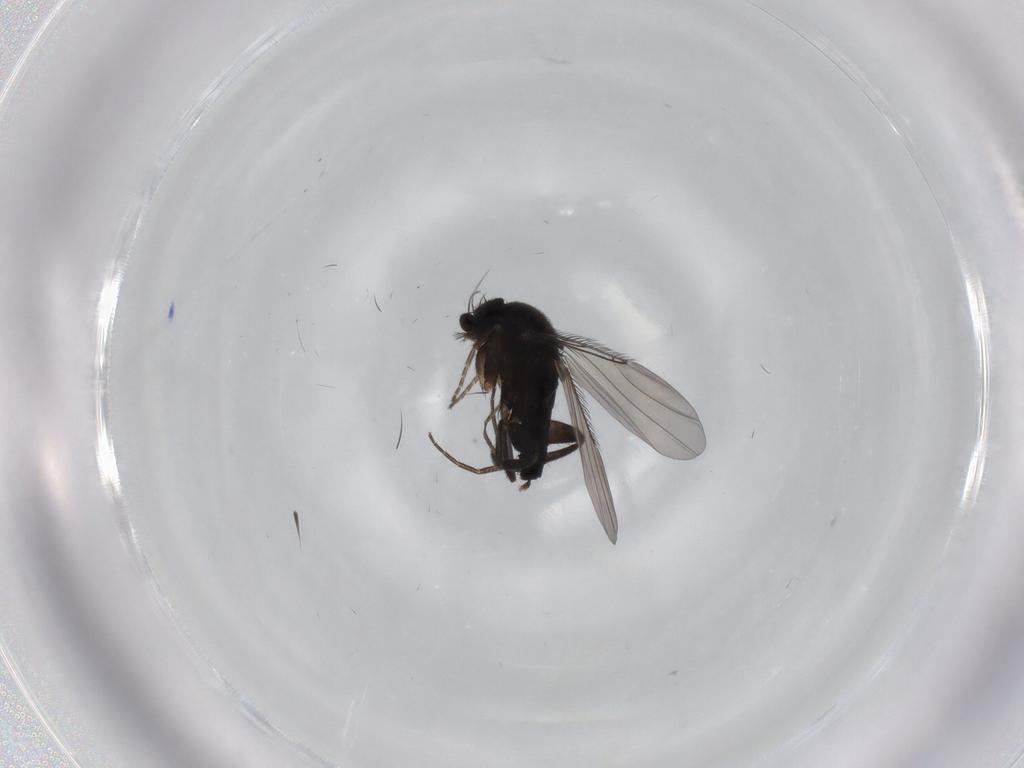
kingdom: Animalia
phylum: Arthropoda
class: Insecta
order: Diptera
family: Phoridae
